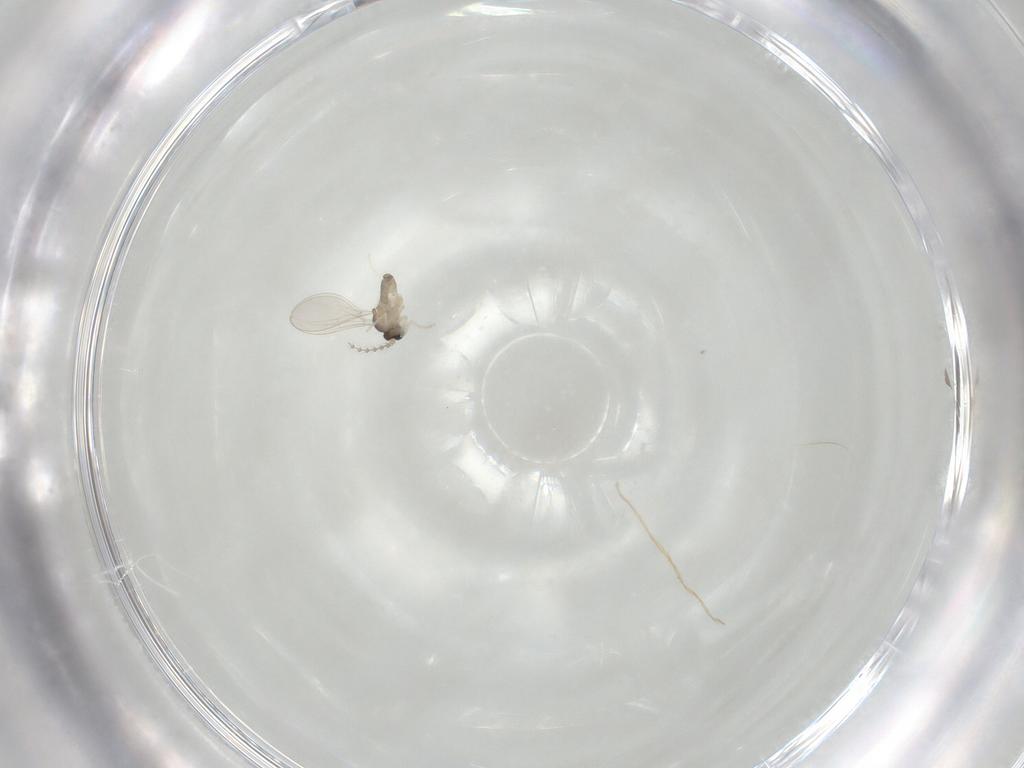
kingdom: Animalia
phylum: Arthropoda
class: Insecta
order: Diptera
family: Cecidomyiidae
